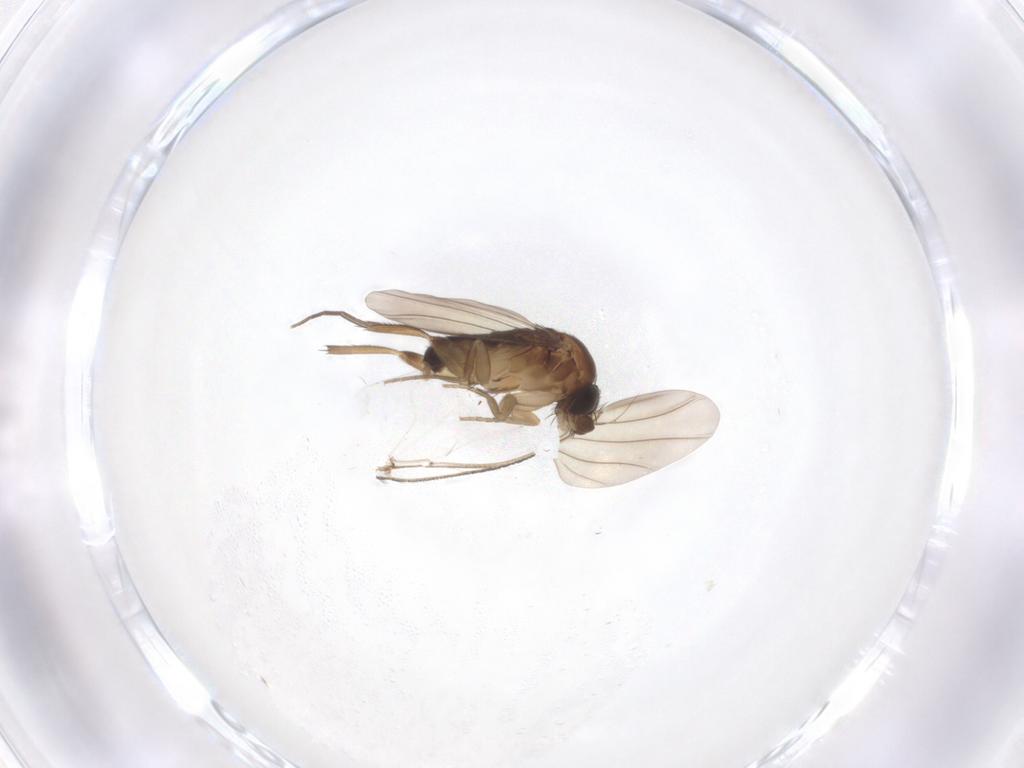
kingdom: Animalia
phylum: Arthropoda
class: Insecta
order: Diptera
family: Phoridae
